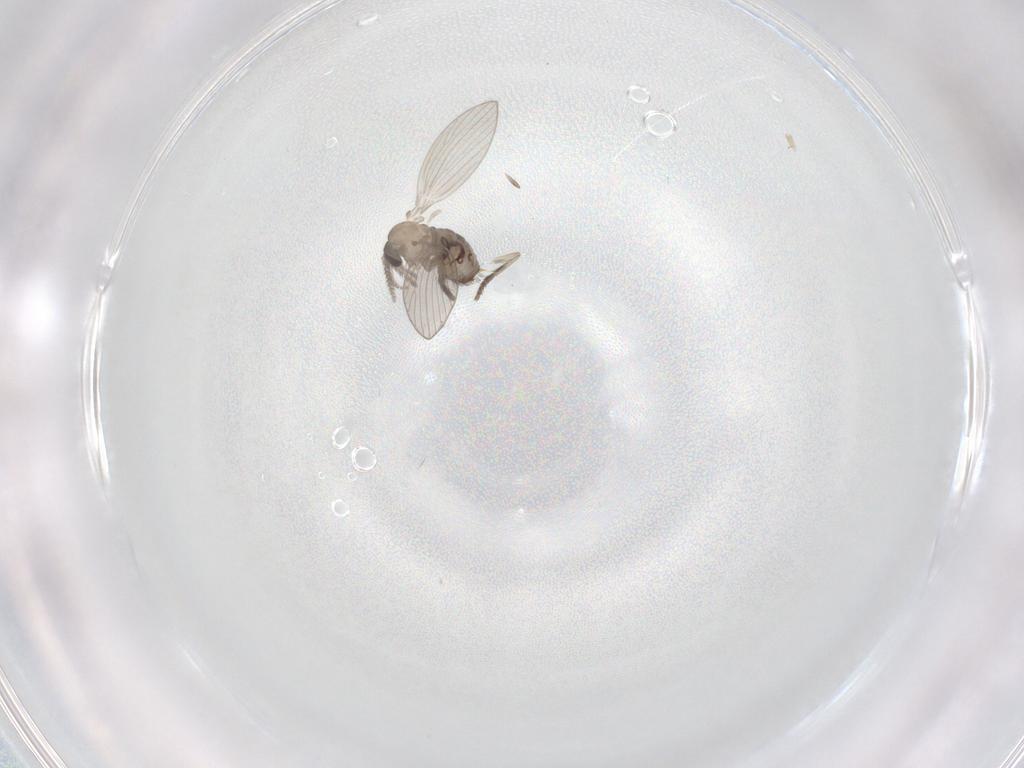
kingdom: Animalia
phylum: Arthropoda
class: Insecta
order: Diptera
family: Psychodidae
